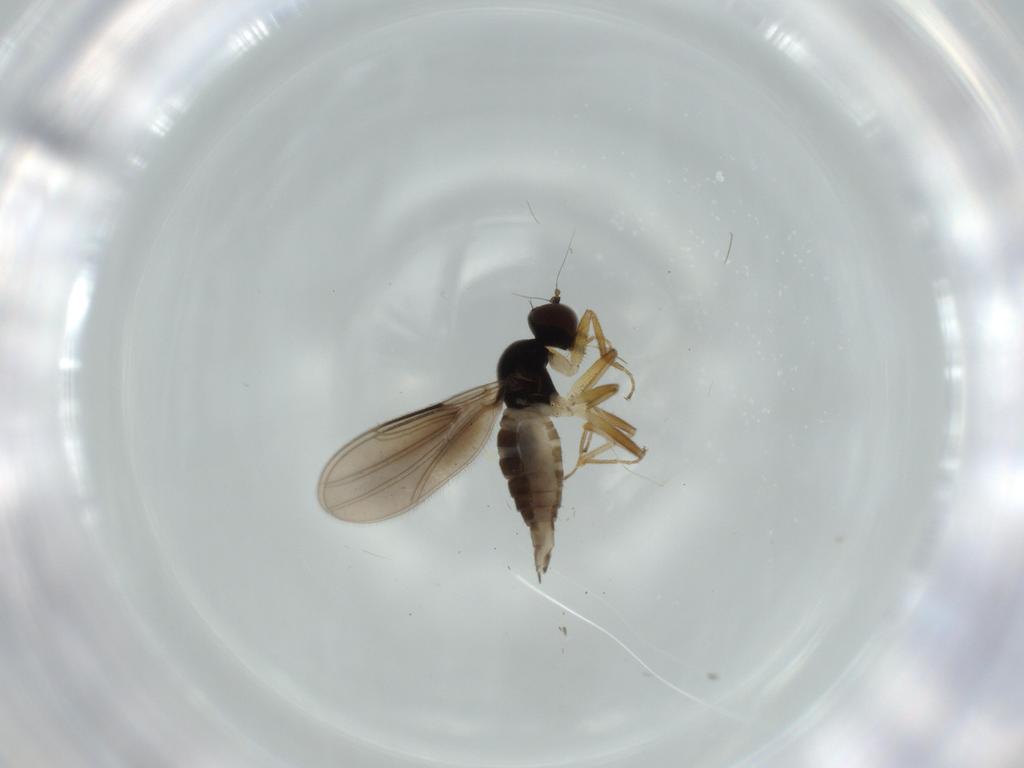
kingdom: Animalia
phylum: Arthropoda
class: Insecta
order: Diptera
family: Hybotidae
